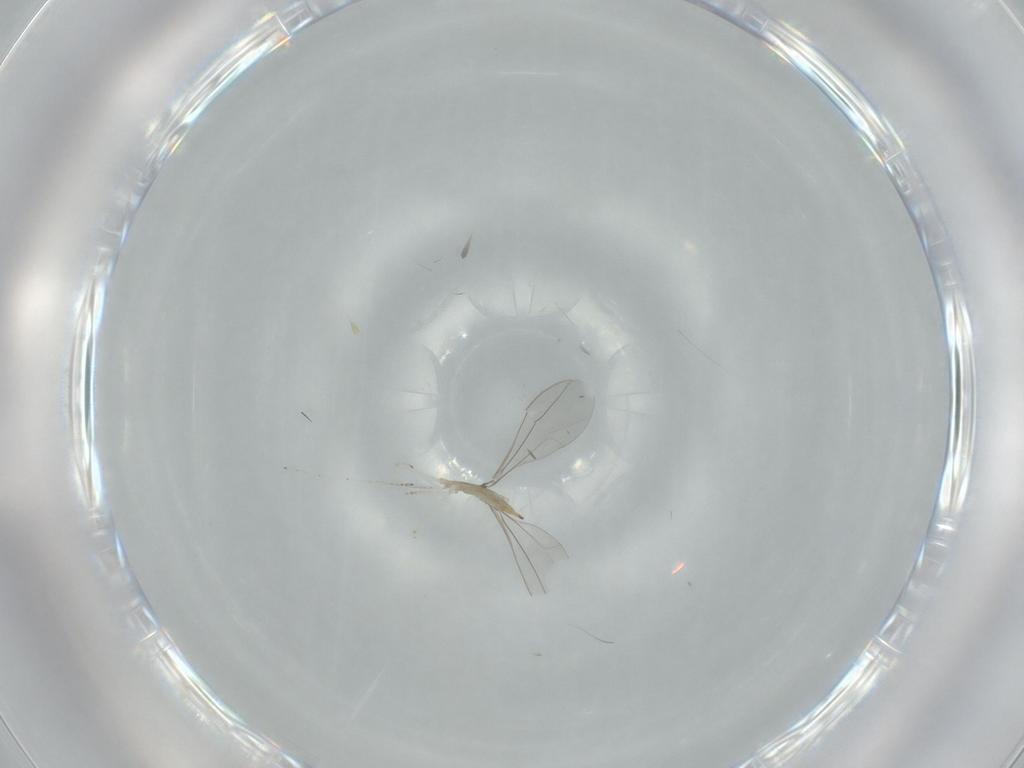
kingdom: Animalia
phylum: Arthropoda
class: Insecta
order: Diptera
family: Cecidomyiidae
